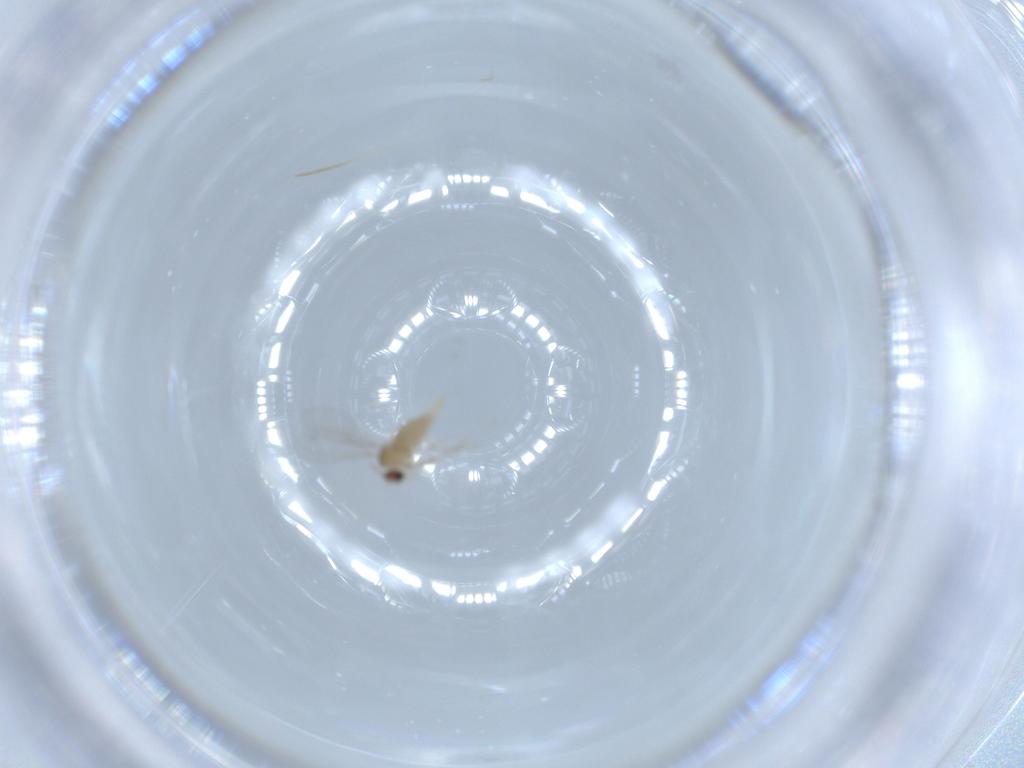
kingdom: Animalia
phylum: Arthropoda
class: Insecta
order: Diptera
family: Cecidomyiidae
